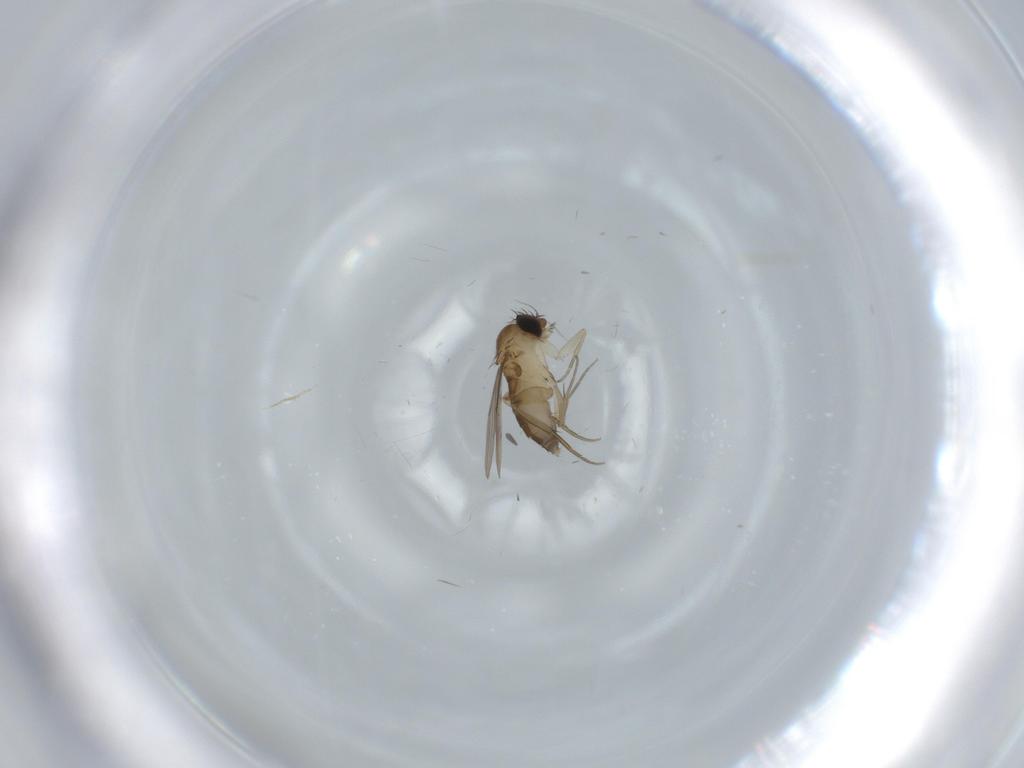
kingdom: Animalia
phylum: Arthropoda
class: Insecta
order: Diptera
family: Phoridae
